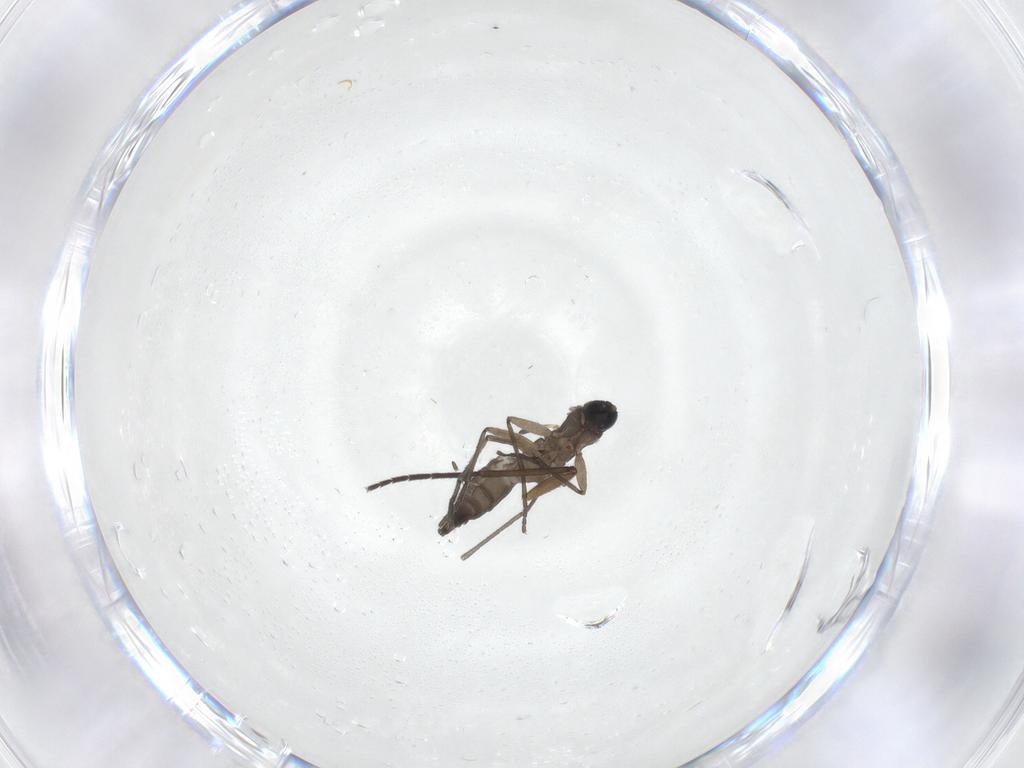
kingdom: Animalia
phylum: Arthropoda
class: Insecta
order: Diptera
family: Sciaridae
